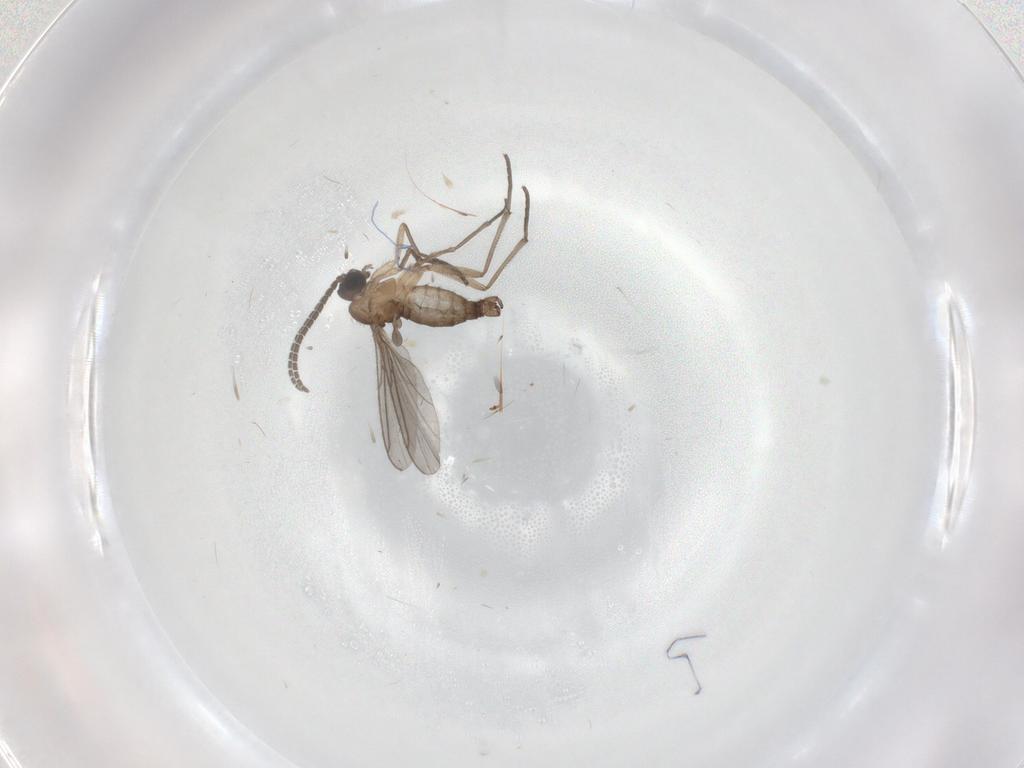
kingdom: Animalia
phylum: Arthropoda
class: Insecta
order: Diptera
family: Sciaridae
